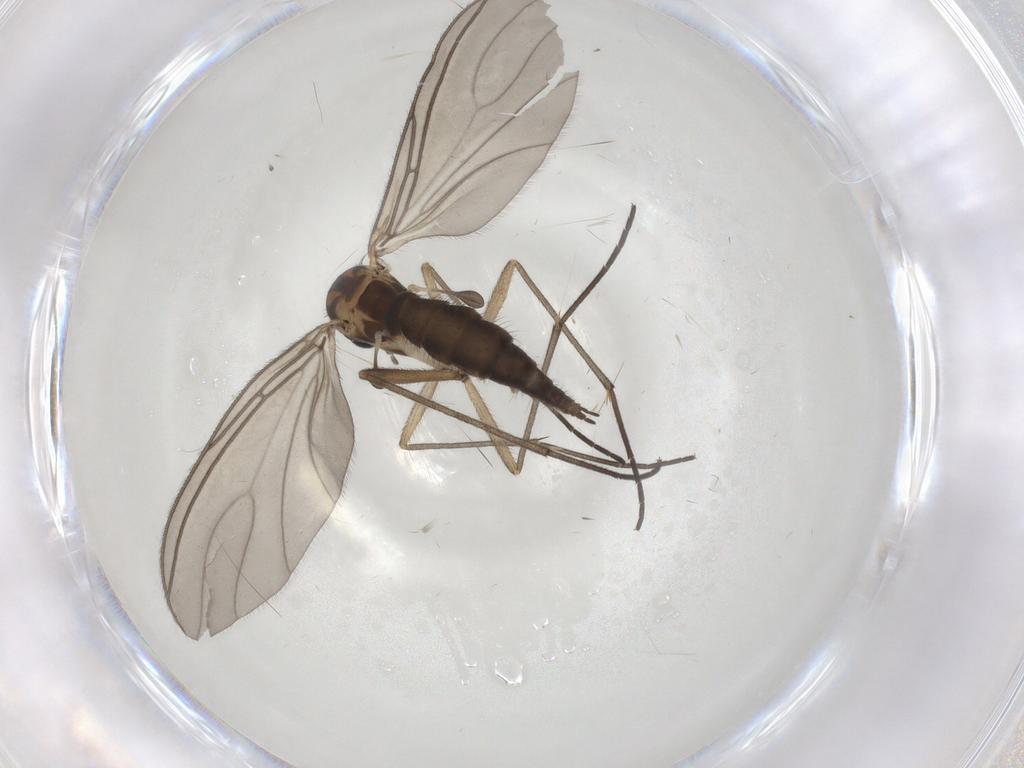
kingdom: Animalia
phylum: Arthropoda
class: Insecta
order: Diptera
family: Sciaridae
